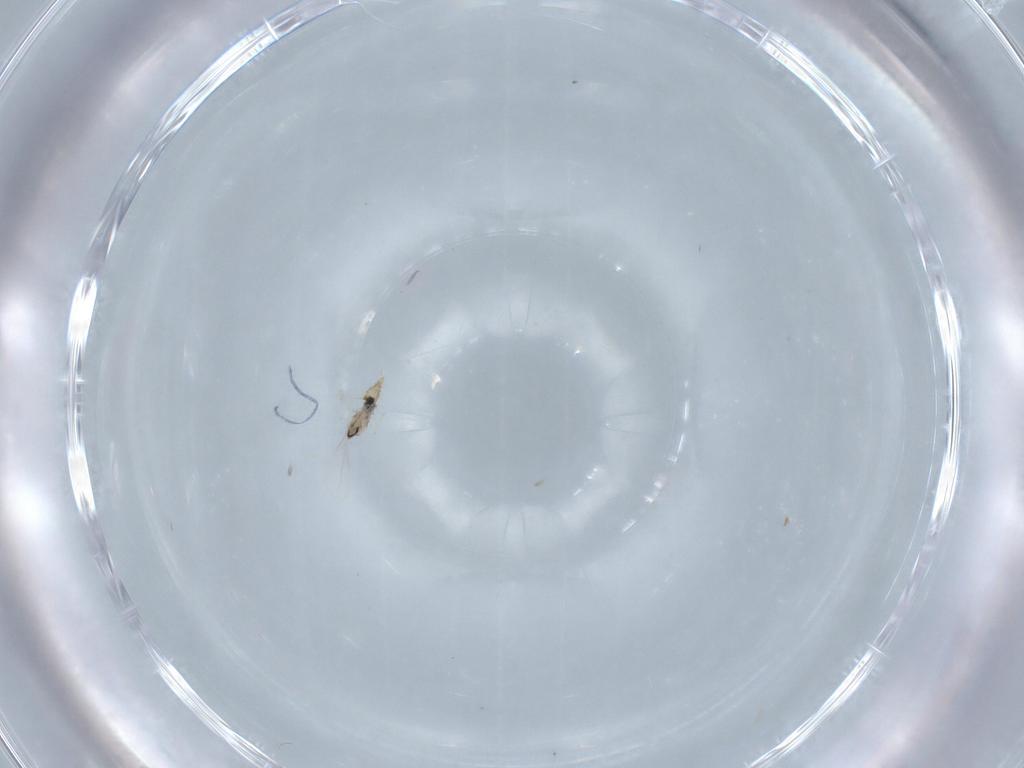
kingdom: Animalia
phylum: Arthropoda
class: Insecta
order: Diptera
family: Cecidomyiidae
